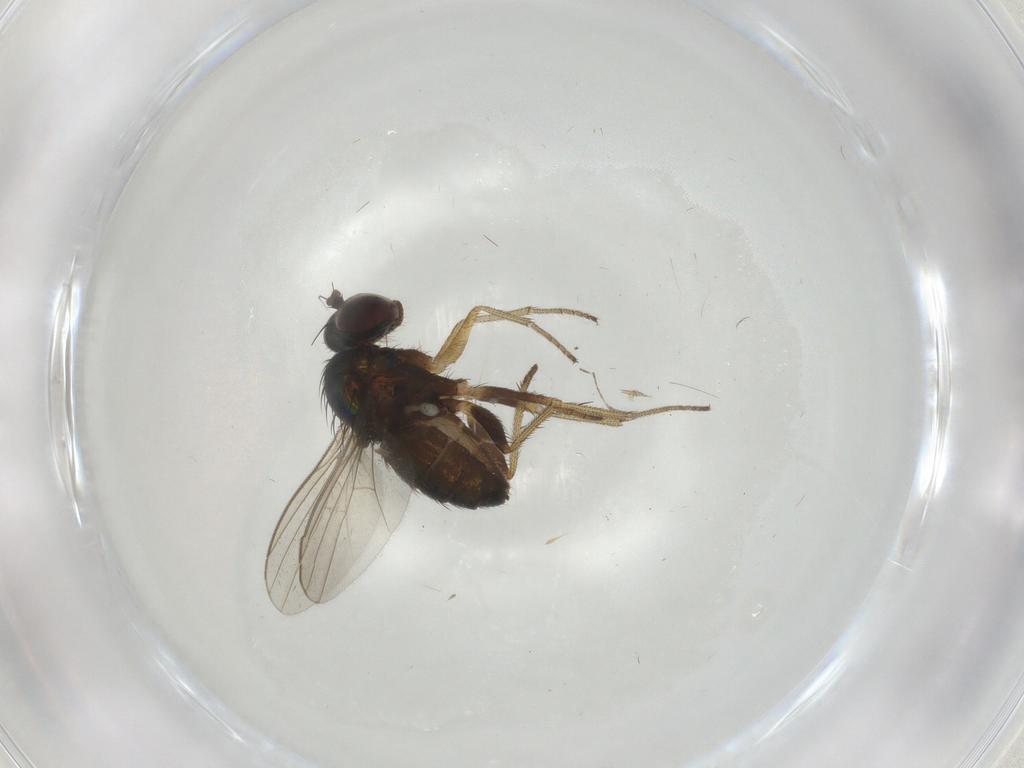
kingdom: Animalia
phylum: Arthropoda
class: Insecta
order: Diptera
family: Cecidomyiidae
